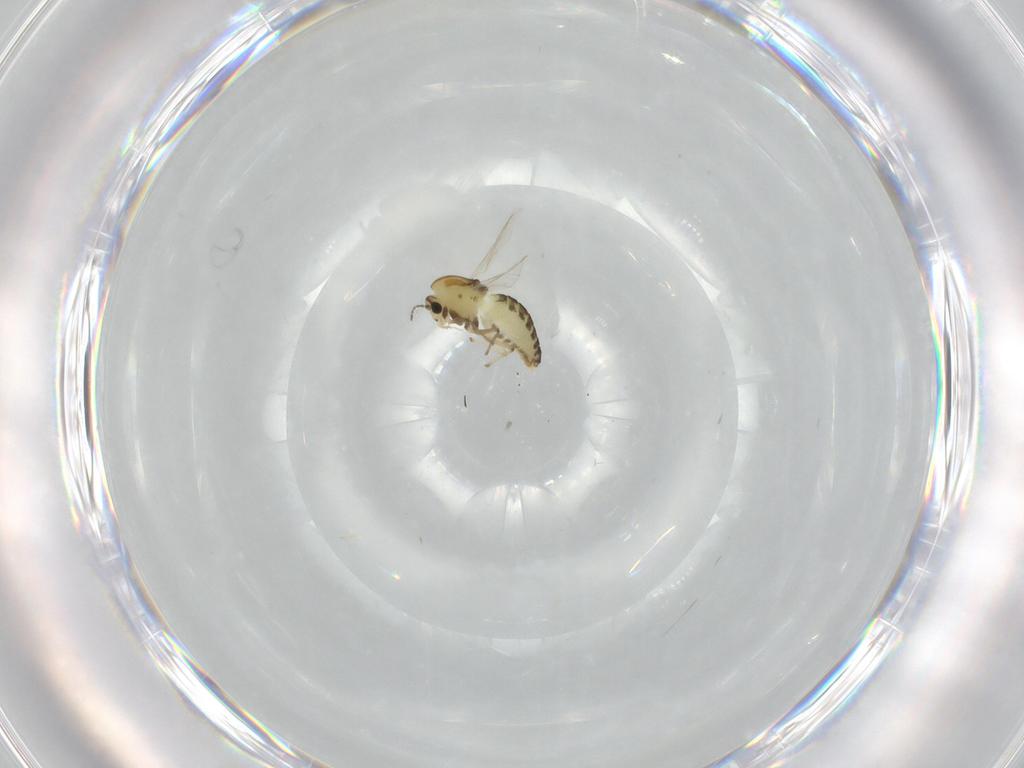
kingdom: Animalia
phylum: Arthropoda
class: Insecta
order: Diptera
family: Chironomidae
